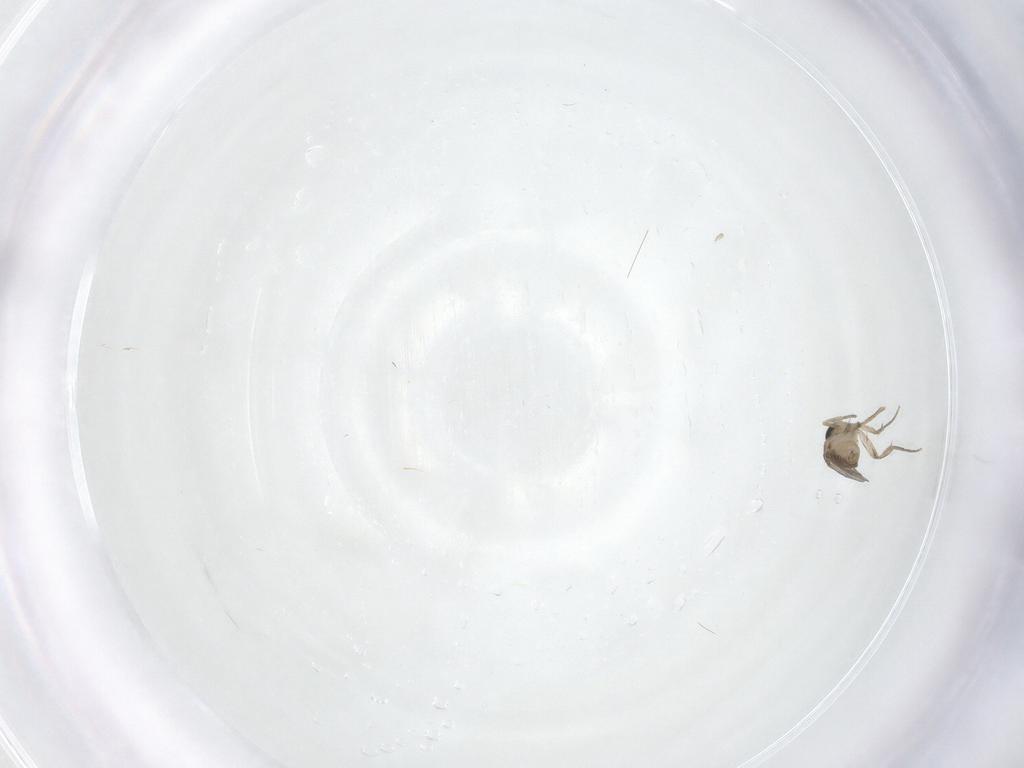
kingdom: Animalia
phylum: Arthropoda
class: Insecta
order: Diptera
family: Phoridae
